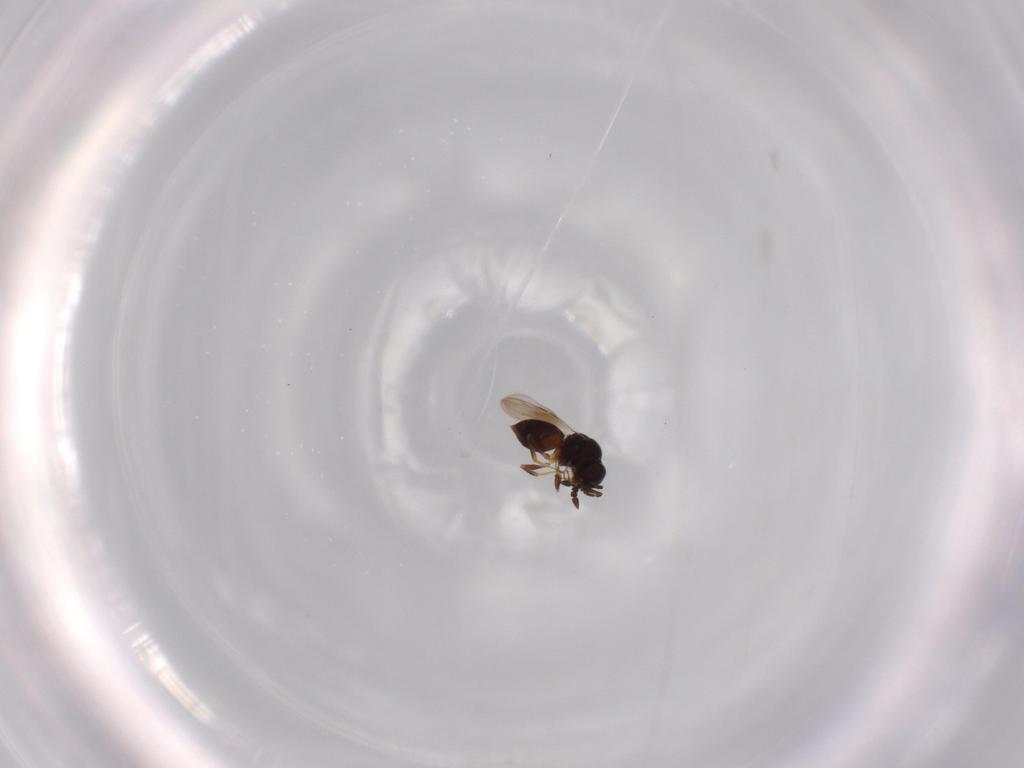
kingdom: Animalia
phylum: Arthropoda
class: Insecta
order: Hymenoptera
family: Ceraphronidae
